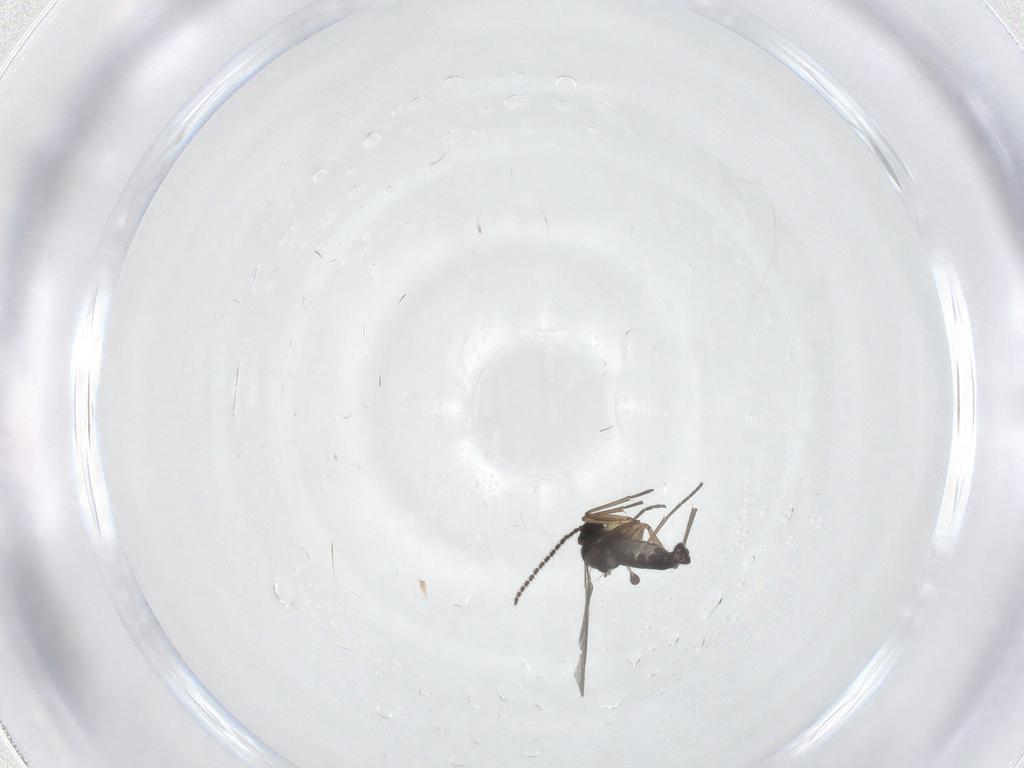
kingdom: Animalia
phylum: Arthropoda
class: Insecta
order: Diptera
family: Sciaridae
